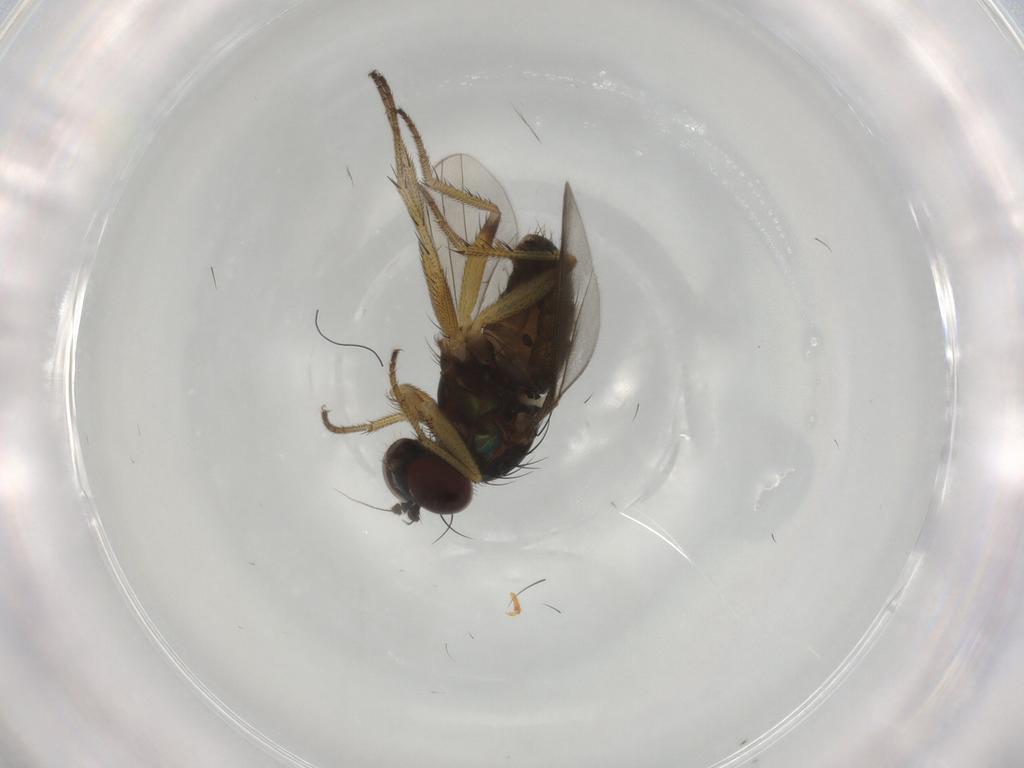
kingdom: Animalia
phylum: Arthropoda
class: Insecta
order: Diptera
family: Dolichopodidae
